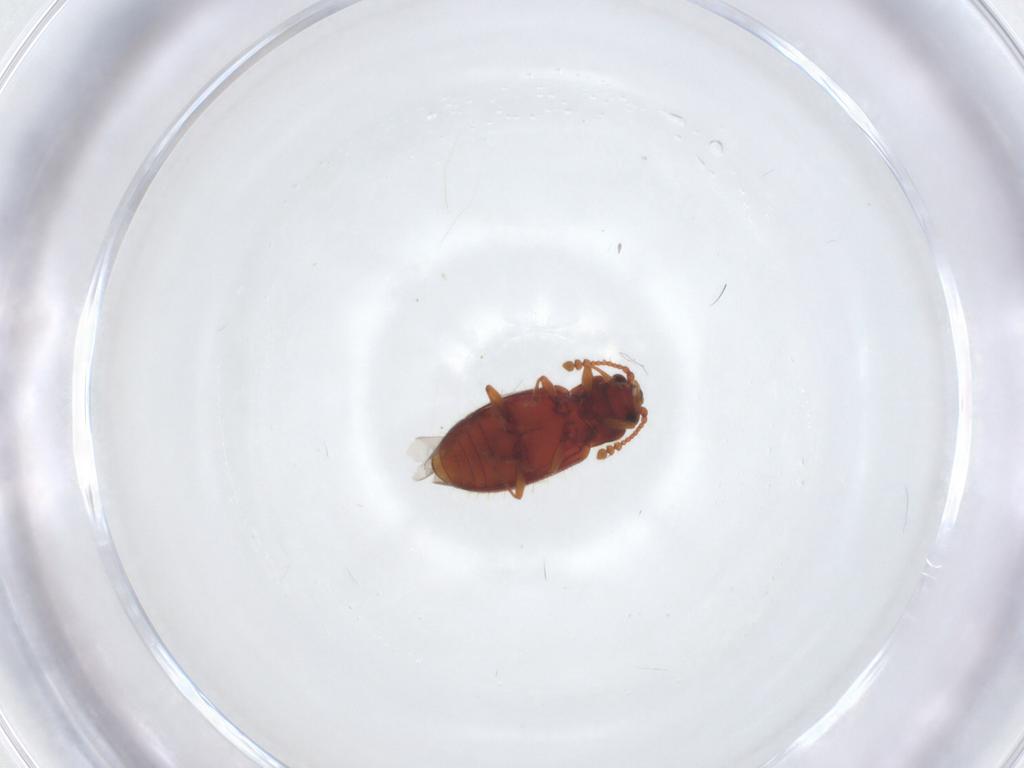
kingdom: Animalia
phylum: Arthropoda
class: Insecta
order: Coleoptera
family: Cryptophagidae
